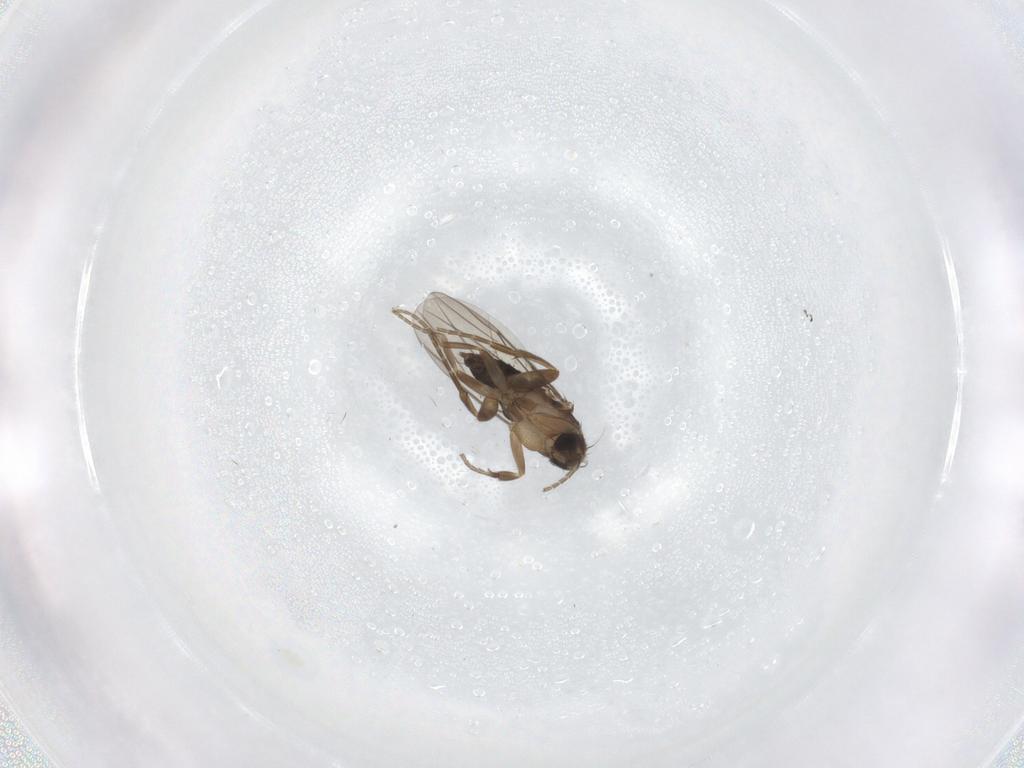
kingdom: Animalia
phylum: Arthropoda
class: Insecta
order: Diptera
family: Phoridae
